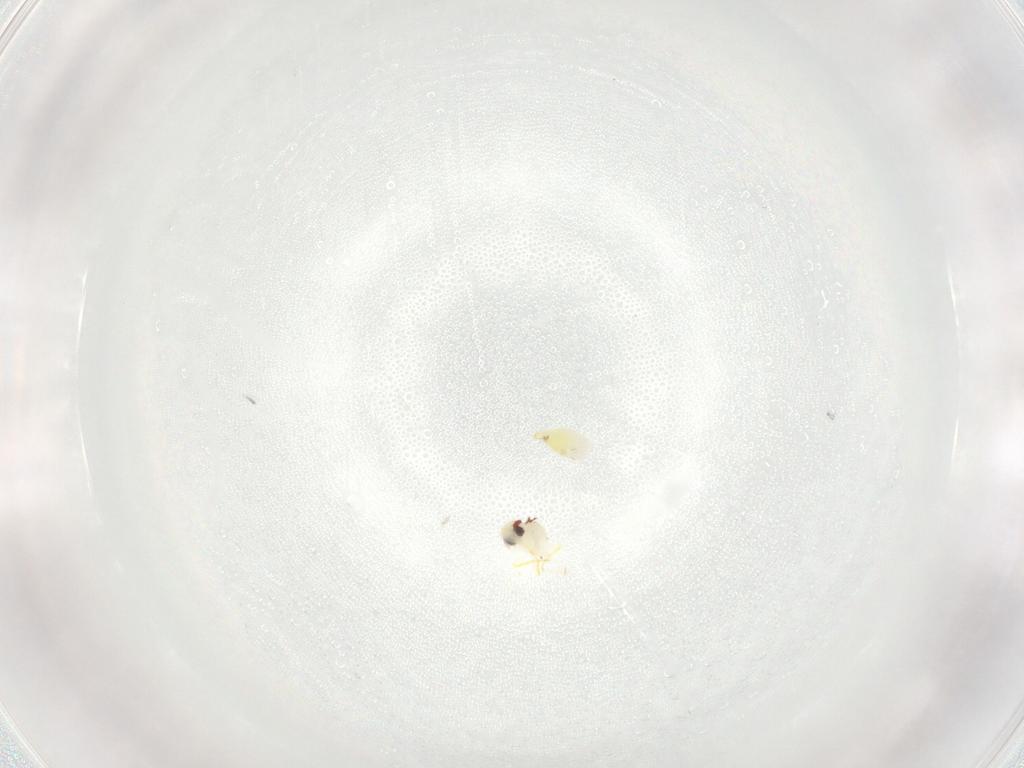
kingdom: Animalia
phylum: Arthropoda
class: Insecta
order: Hemiptera
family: Aleyrodidae
